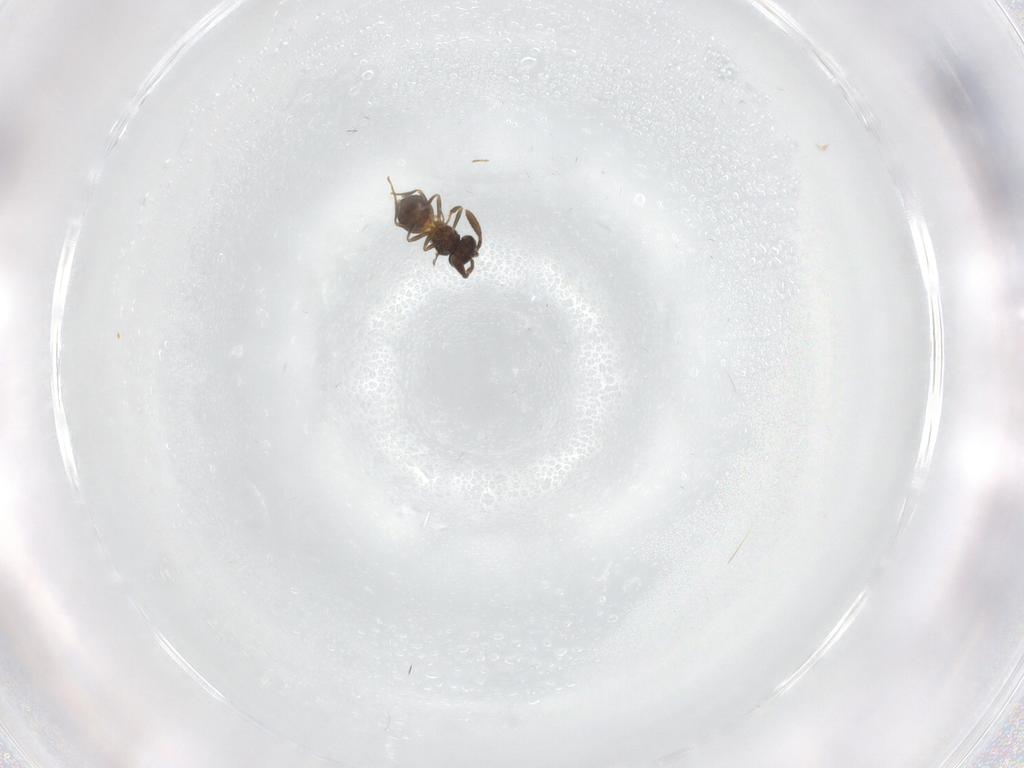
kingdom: Animalia
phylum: Arthropoda
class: Insecta
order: Hymenoptera
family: Scelionidae
